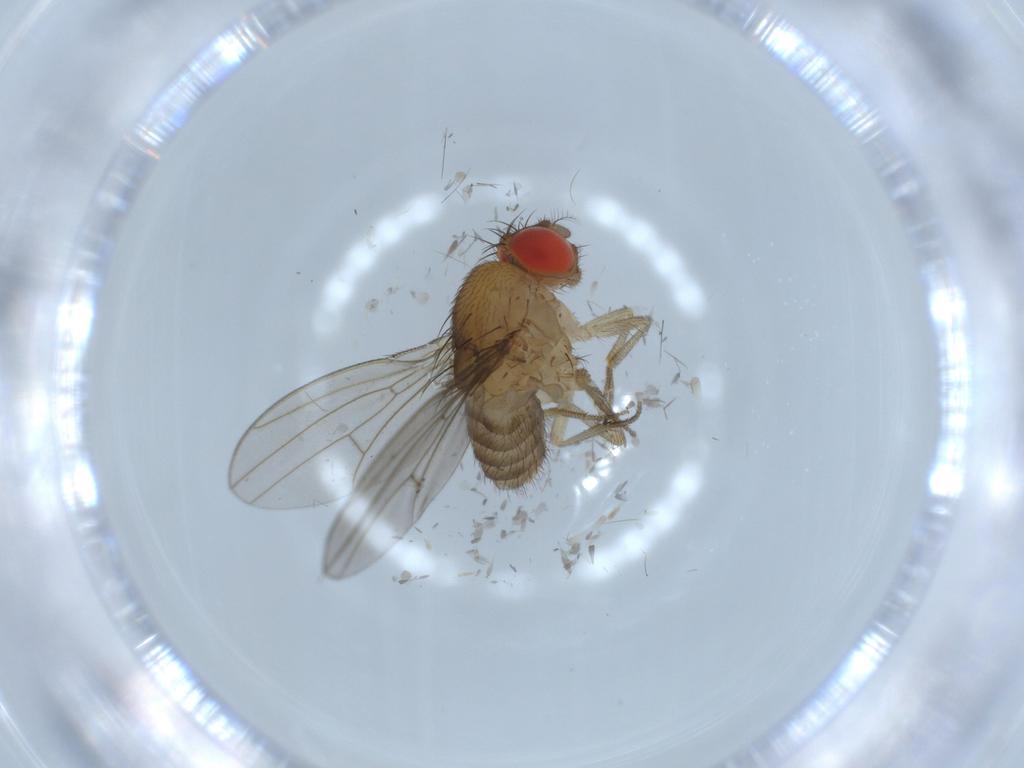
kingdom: Animalia
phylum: Arthropoda
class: Insecta
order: Diptera
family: Drosophilidae
